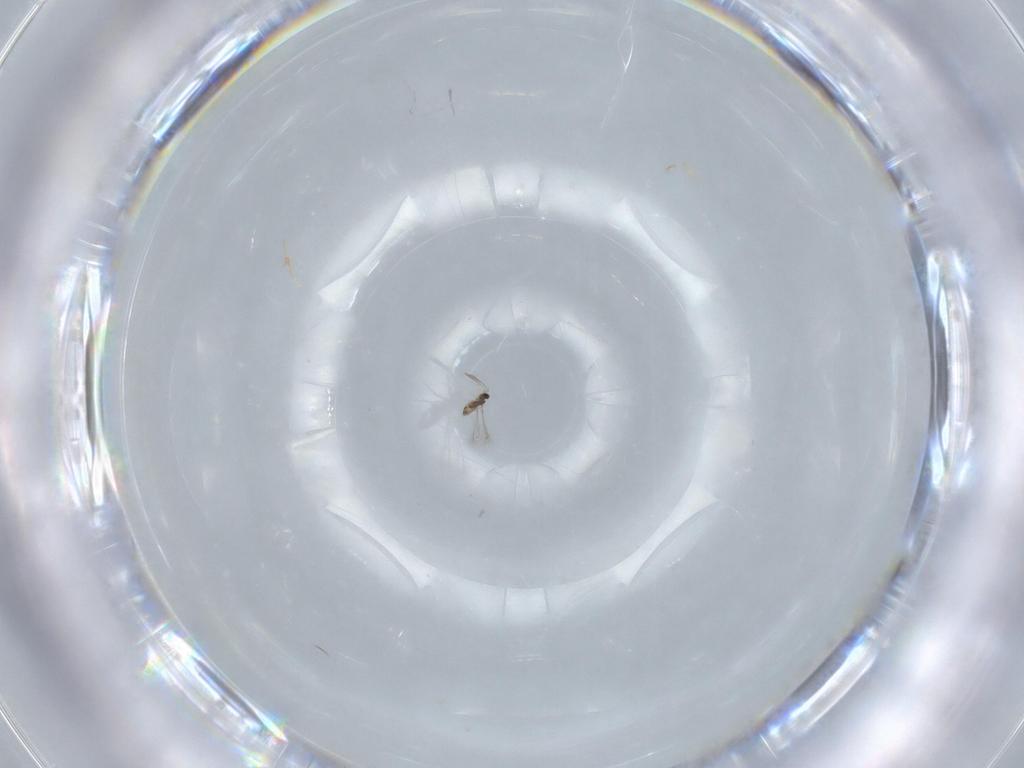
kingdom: Animalia
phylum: Arthropoda
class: Insecta
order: Hymenoptera
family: Mymaridae
